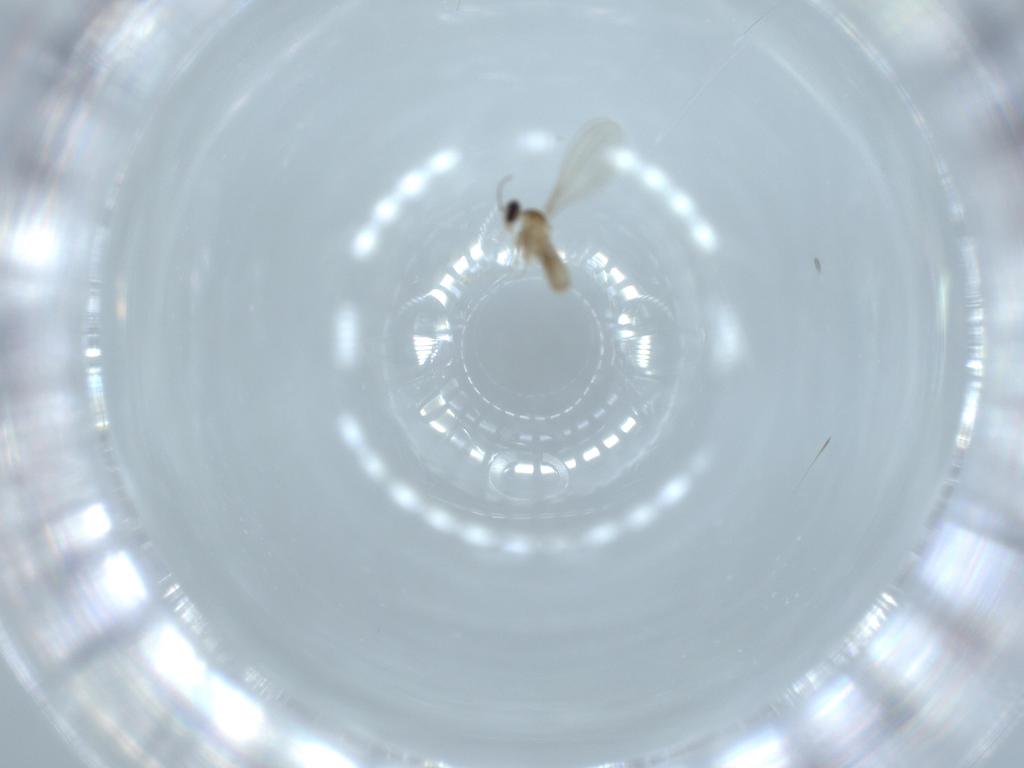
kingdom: Animalia
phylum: Arthropoda
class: Insecta
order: Diptera
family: Cecidomyiidae
